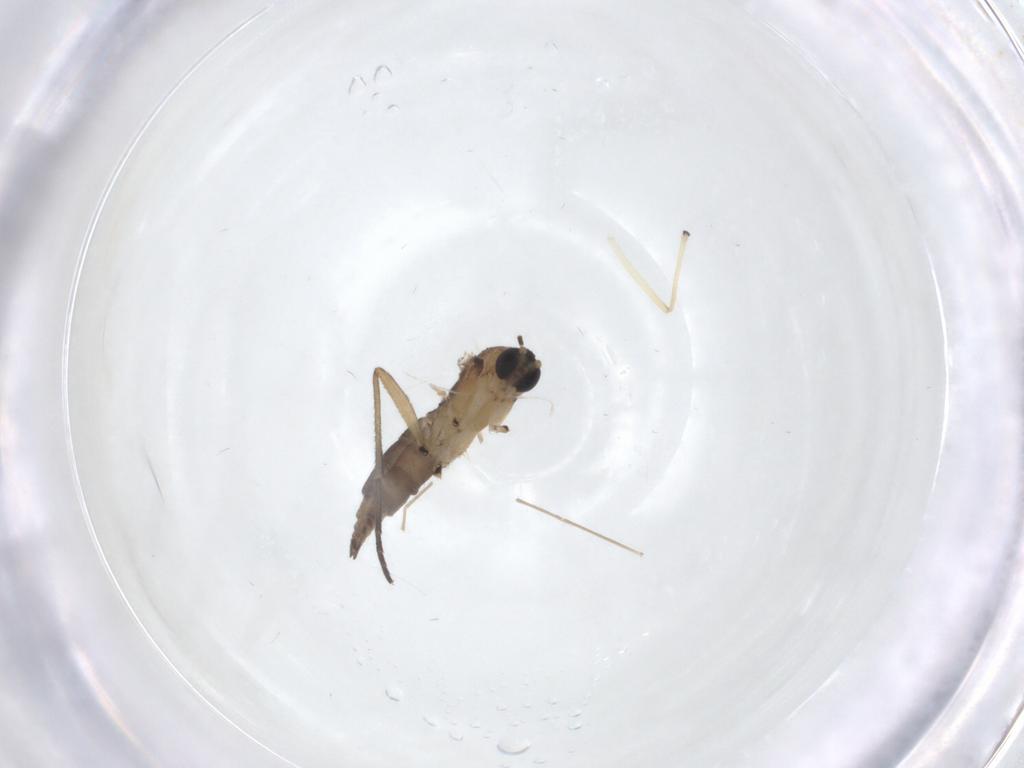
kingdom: Animalia
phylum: Arthropoda
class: Insecta
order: Diptera
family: Sciaridae
